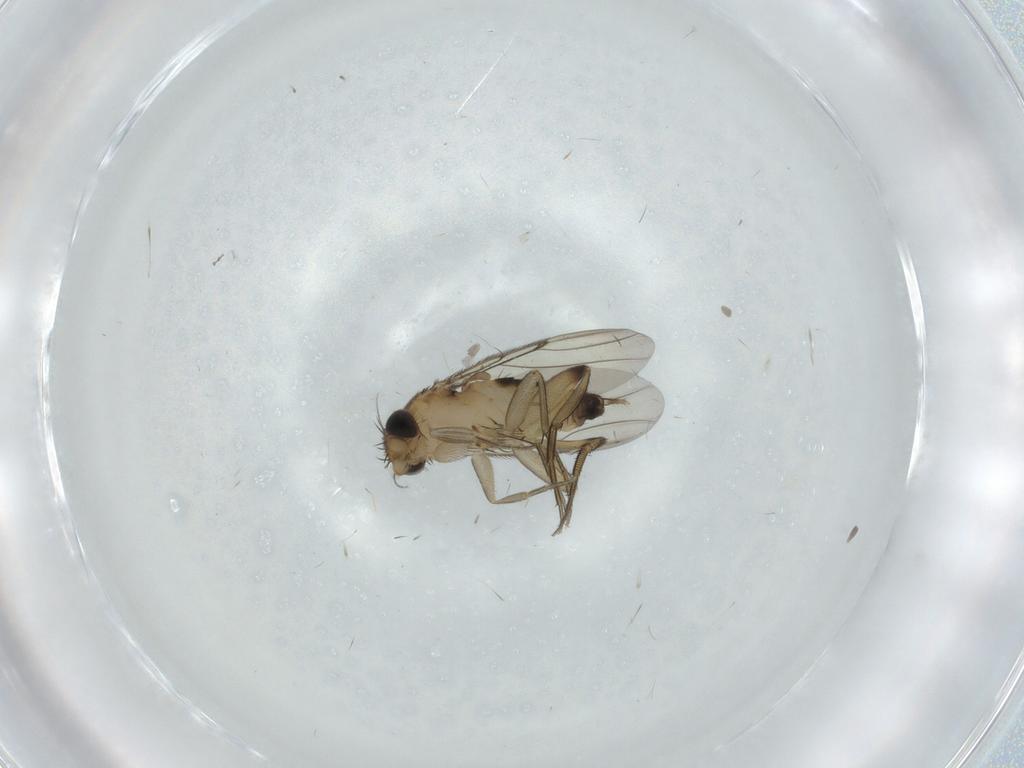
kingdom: Animalia
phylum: Arthropoda
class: Insecta
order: Diptera
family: Phoridae
